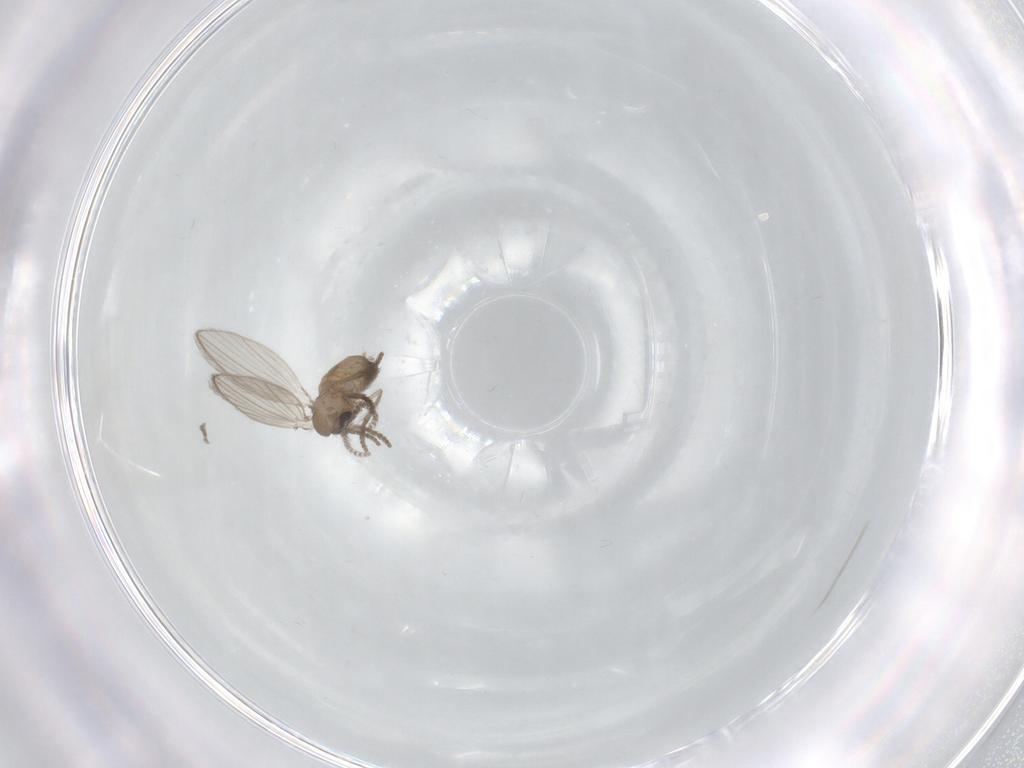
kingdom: Animalia
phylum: Arthropoda
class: Insecta
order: Diptera
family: Psychodidae
